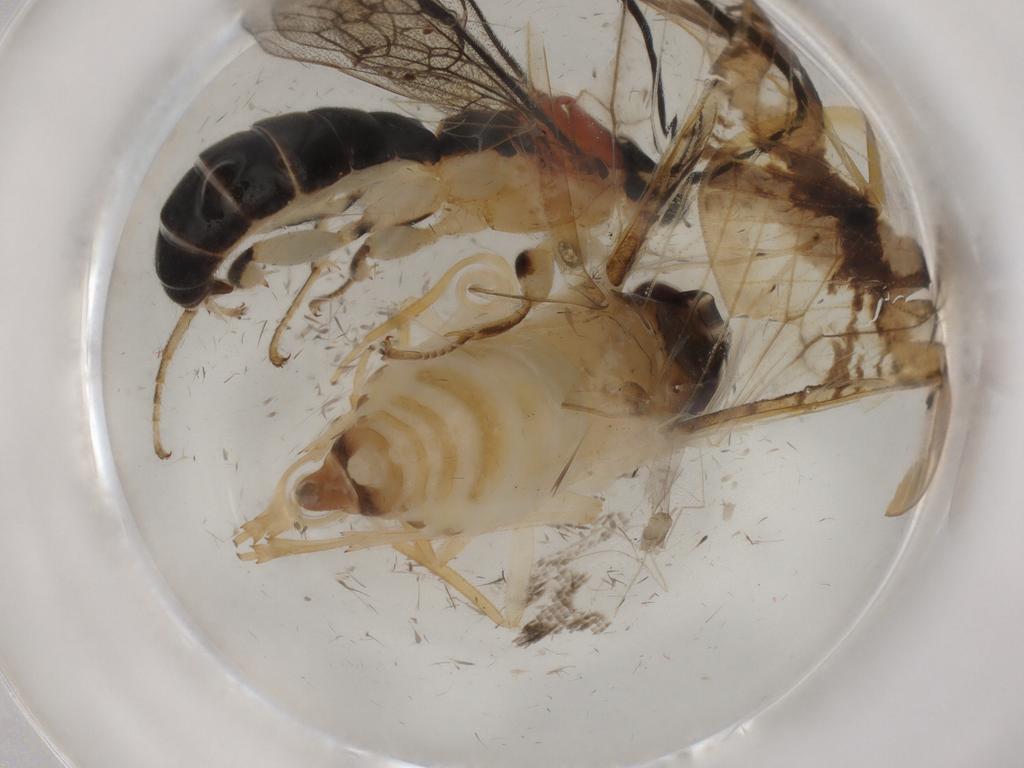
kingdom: Animalia
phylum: Arthropoda
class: Insecta
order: Hemiptera
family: Cixiidae
